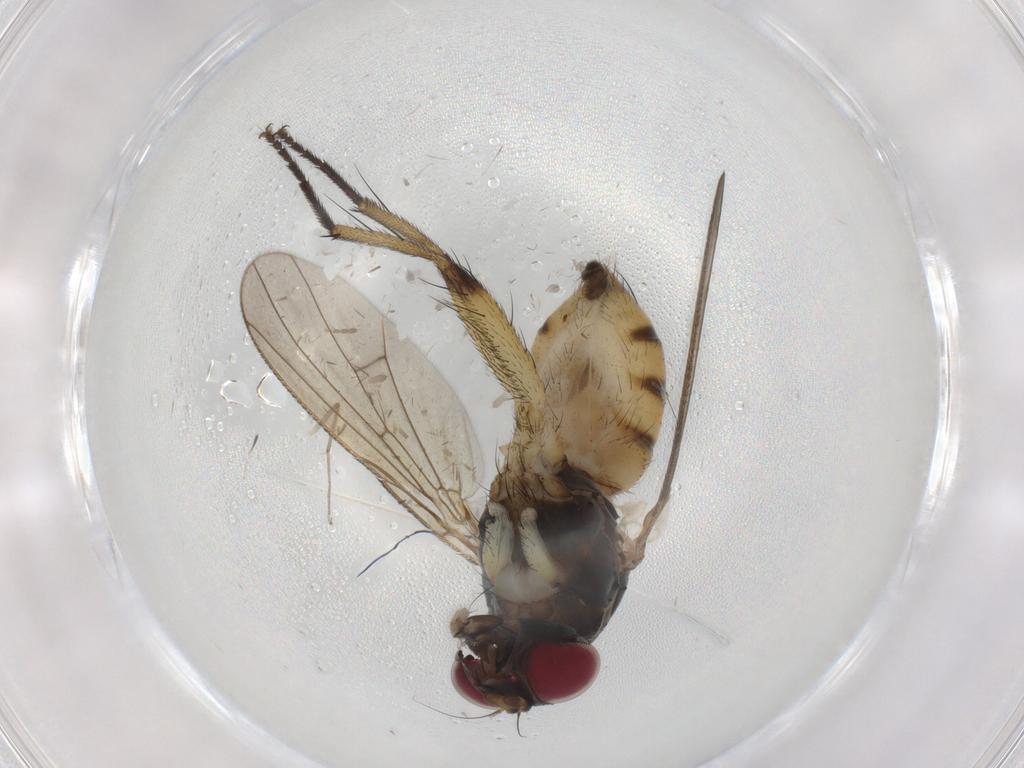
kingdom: Animalia
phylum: Arthropoda
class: Insecta
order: Diptera
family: Muscidae
